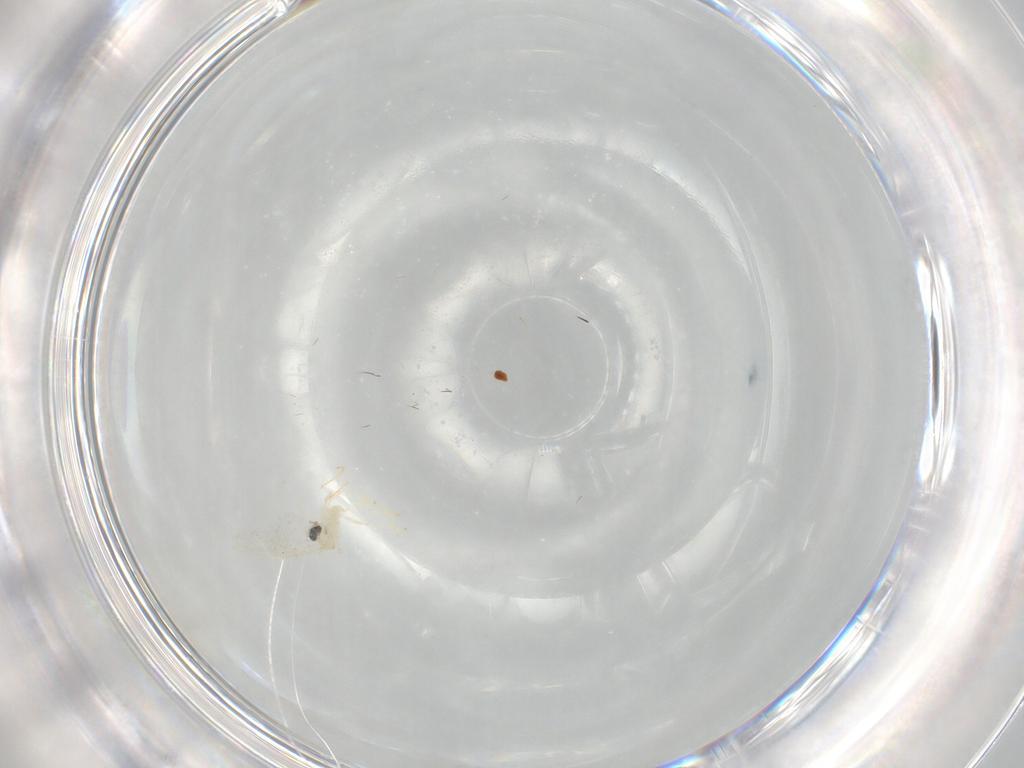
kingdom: Animalia
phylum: Arthropoda
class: Insecta
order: Diptera
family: Cecidomyiidae
